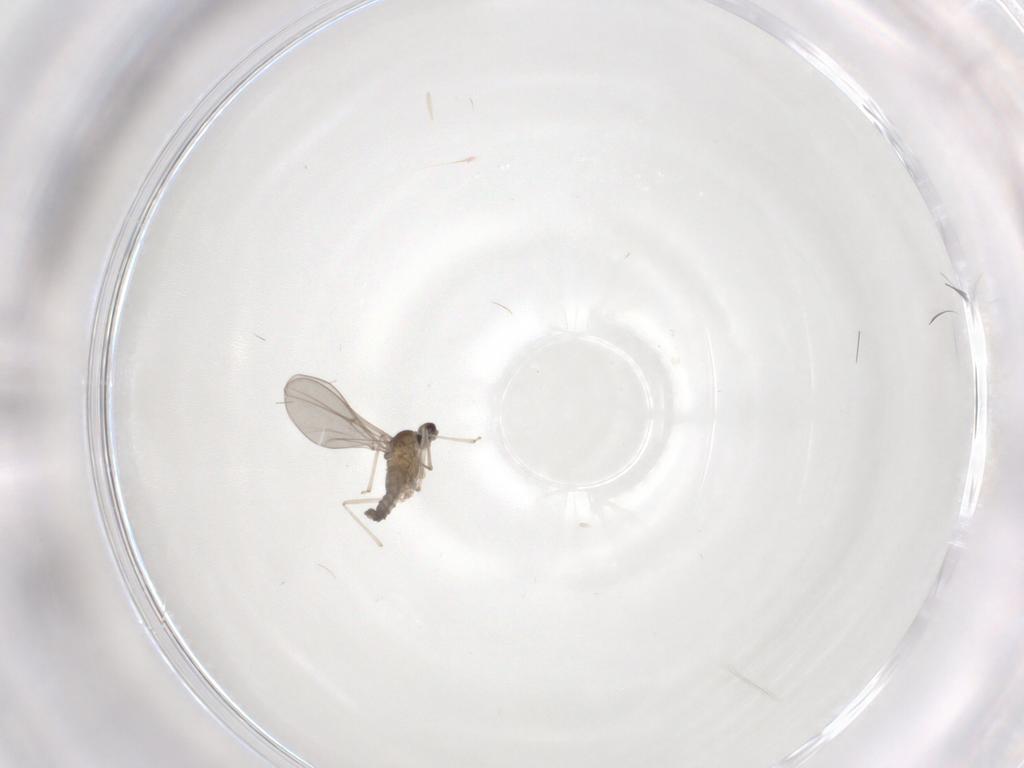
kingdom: Animalia
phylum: Arthropoda
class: Insecta
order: Diptera
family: Cecidomyiidae
